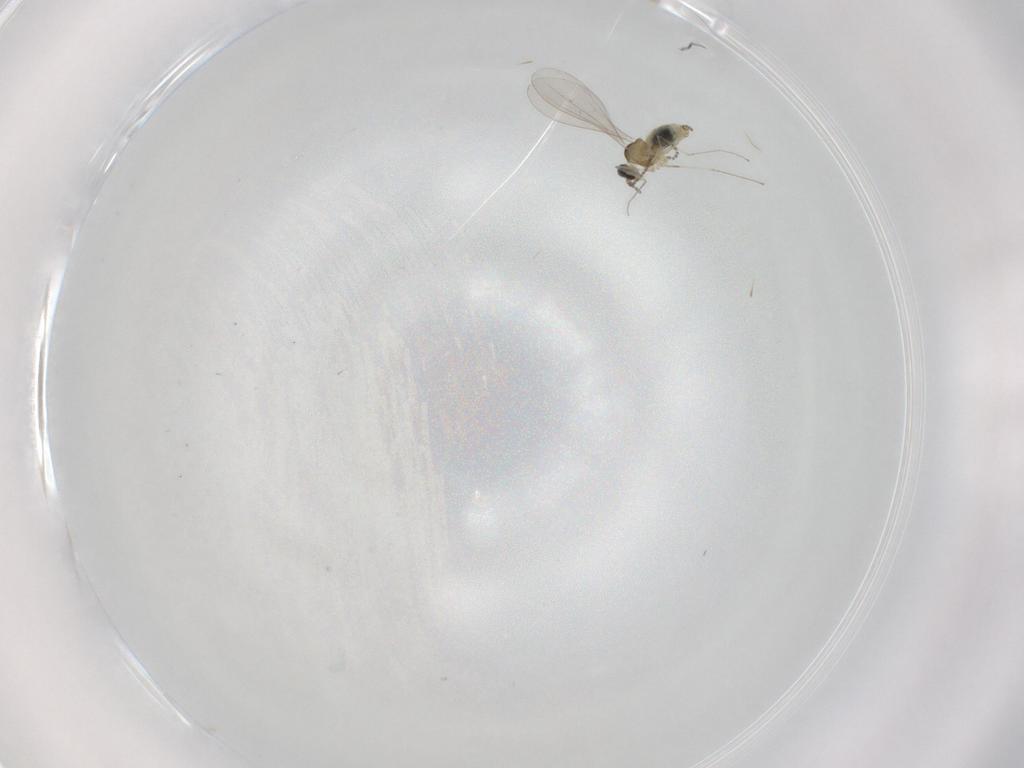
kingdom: Animalia
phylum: Arthropoda
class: Insecta
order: Diptera
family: Cecidomyiidae
